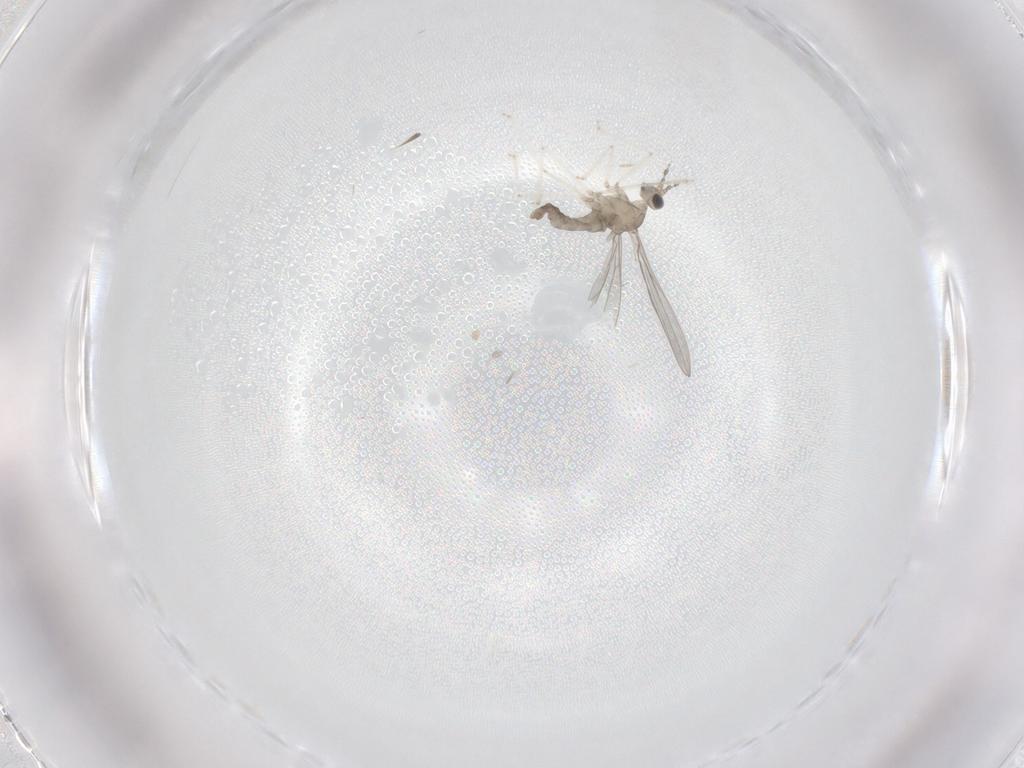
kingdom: Animalia
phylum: Arthropoda
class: Insecta
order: Diptera
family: Cecidomyiidae
